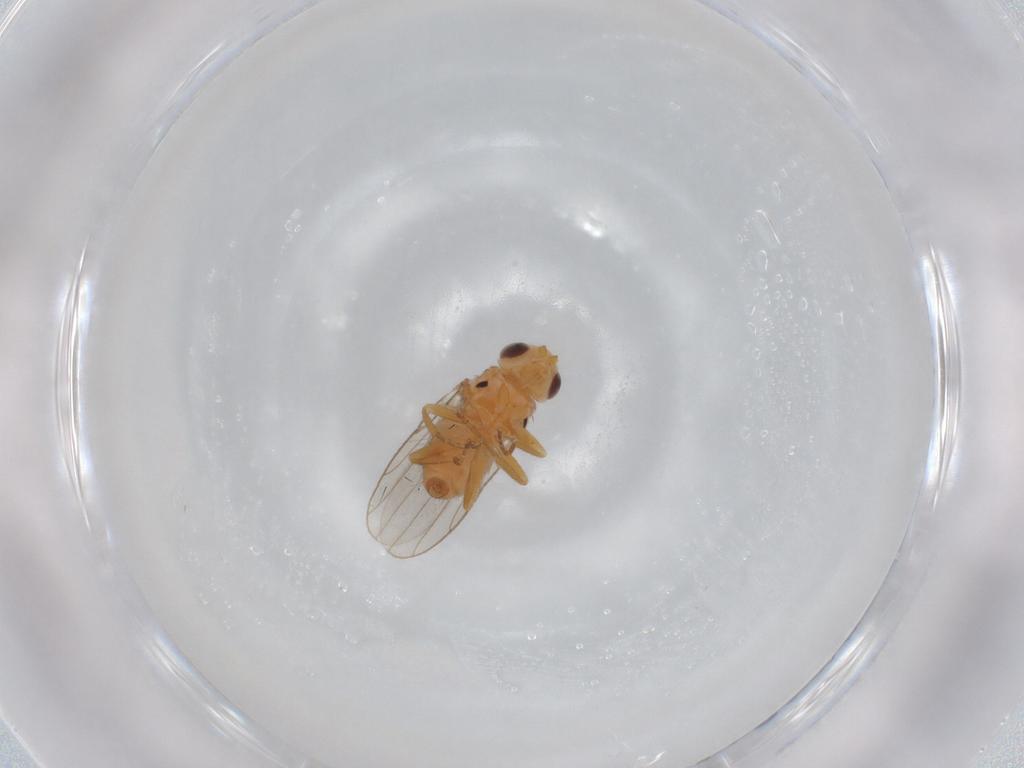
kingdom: Animalia
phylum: Arthropoda
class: Insecta
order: Diptera
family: Chloropidae
